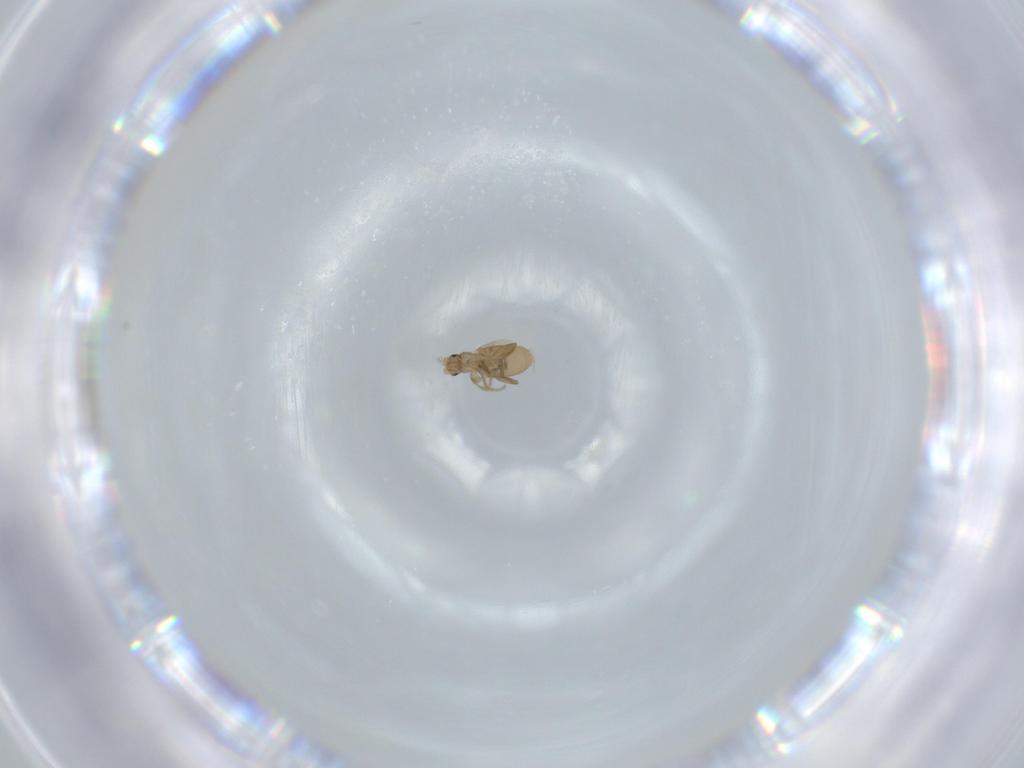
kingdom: Animalia
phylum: Arthropoda
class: Insecta
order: Diptera
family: Phoridae
